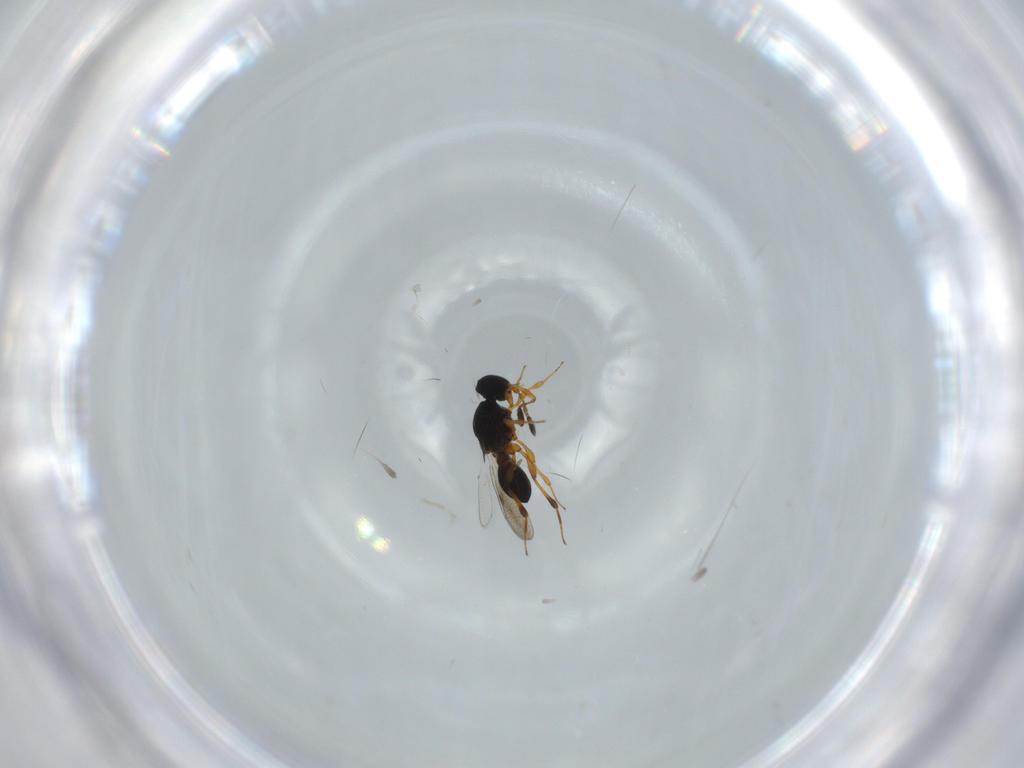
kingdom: Animalia
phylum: Arthropoda
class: Insecta
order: Hymenoptera
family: Platygastridae
